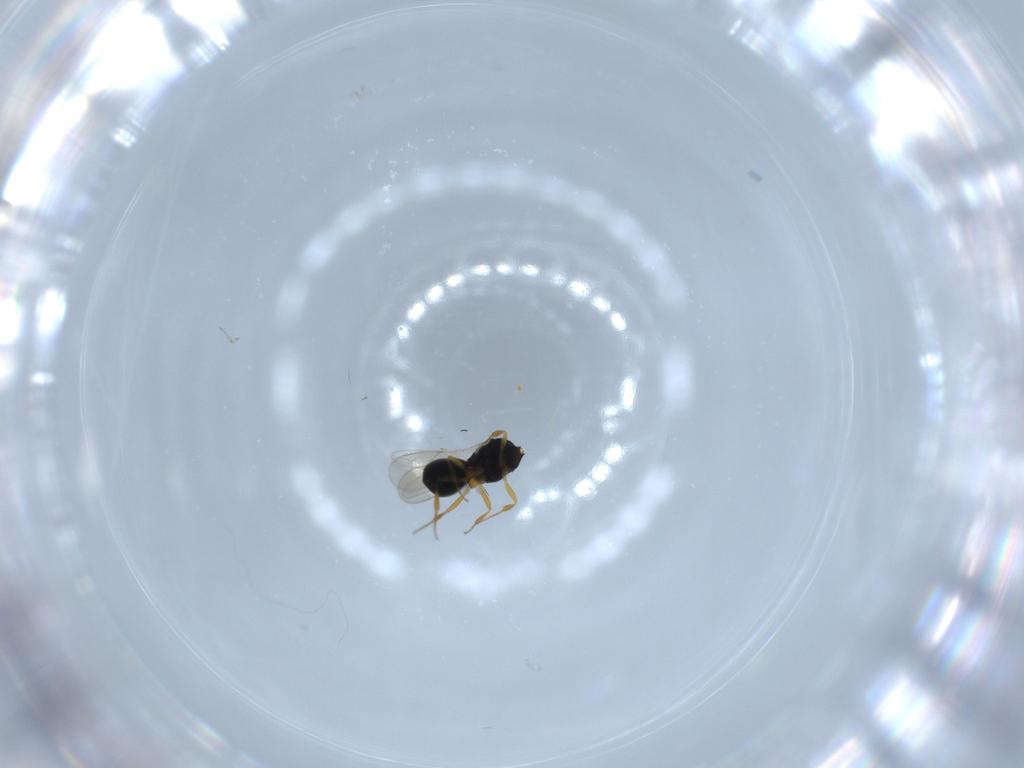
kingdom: Animalia
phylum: Arthropoda
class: Insecta
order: Hymenoptera
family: Scelionidae
